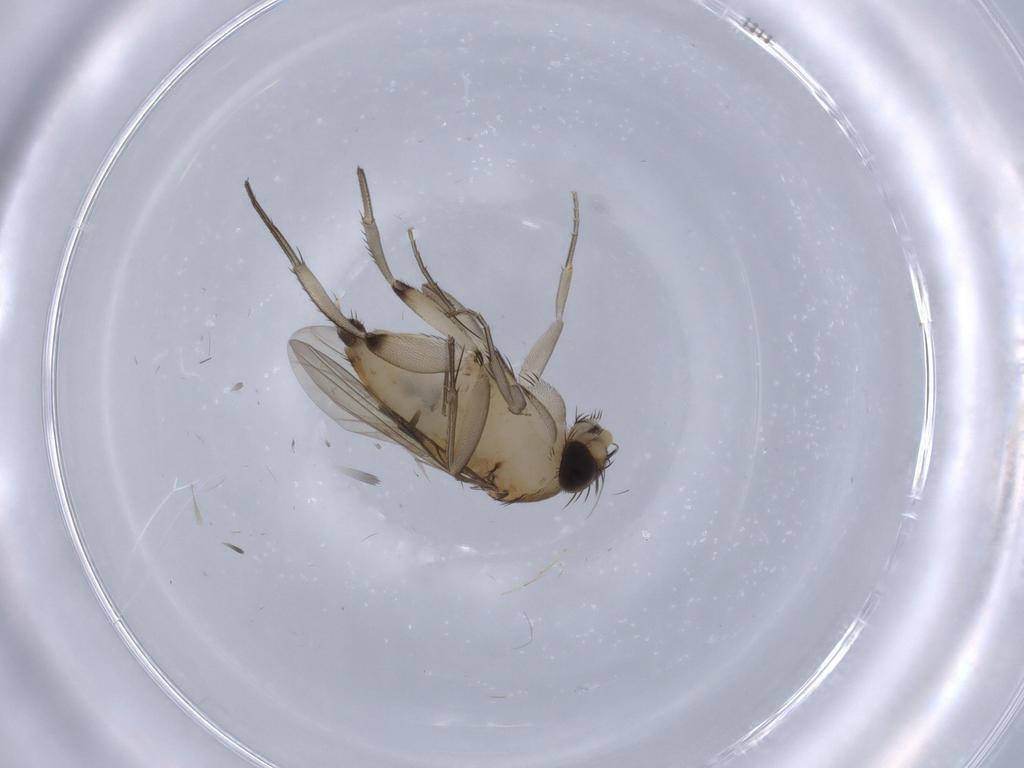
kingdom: Animalia
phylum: Arthropoda
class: Insecta
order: Diptera
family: Phoridae
